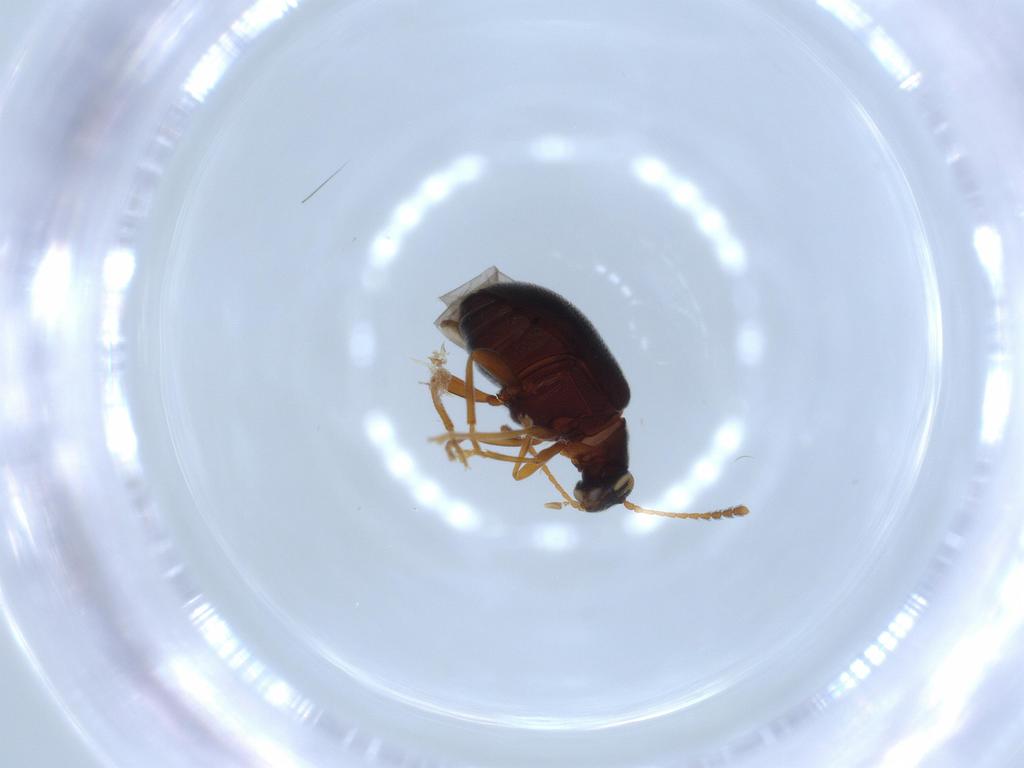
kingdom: Animalia
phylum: Arthropoda
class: Insecta
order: Coleoptera
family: Aderidae
